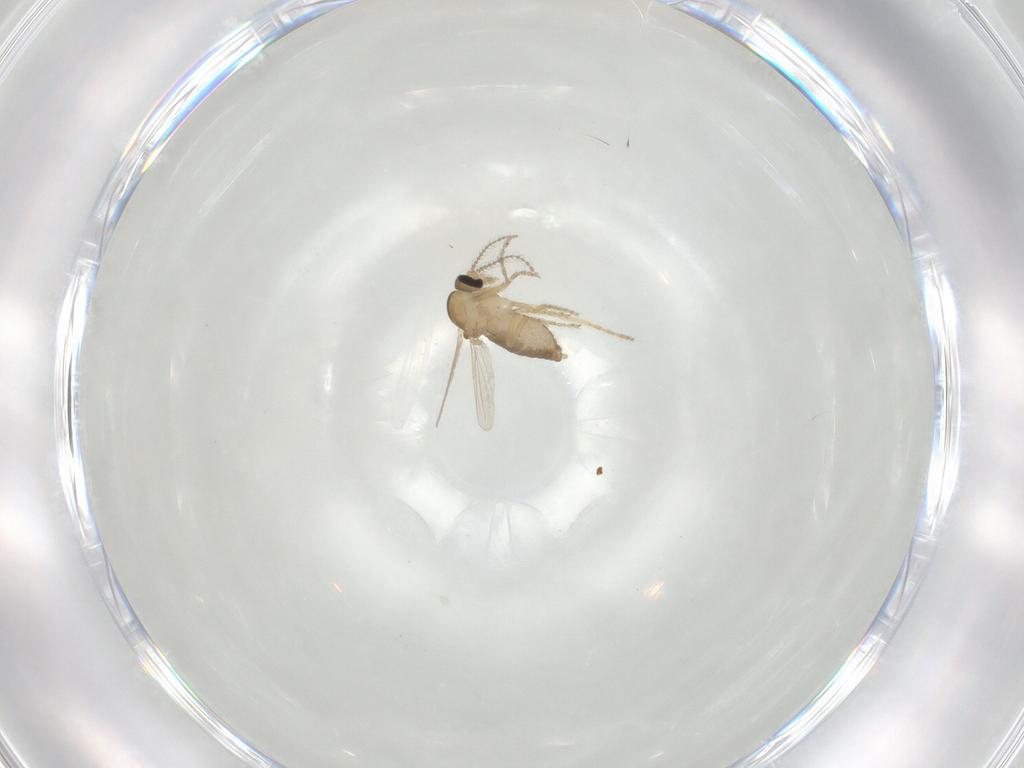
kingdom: Animalia
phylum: Arthropoda
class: Insecta
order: Diptera
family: Ceratopogonidae
